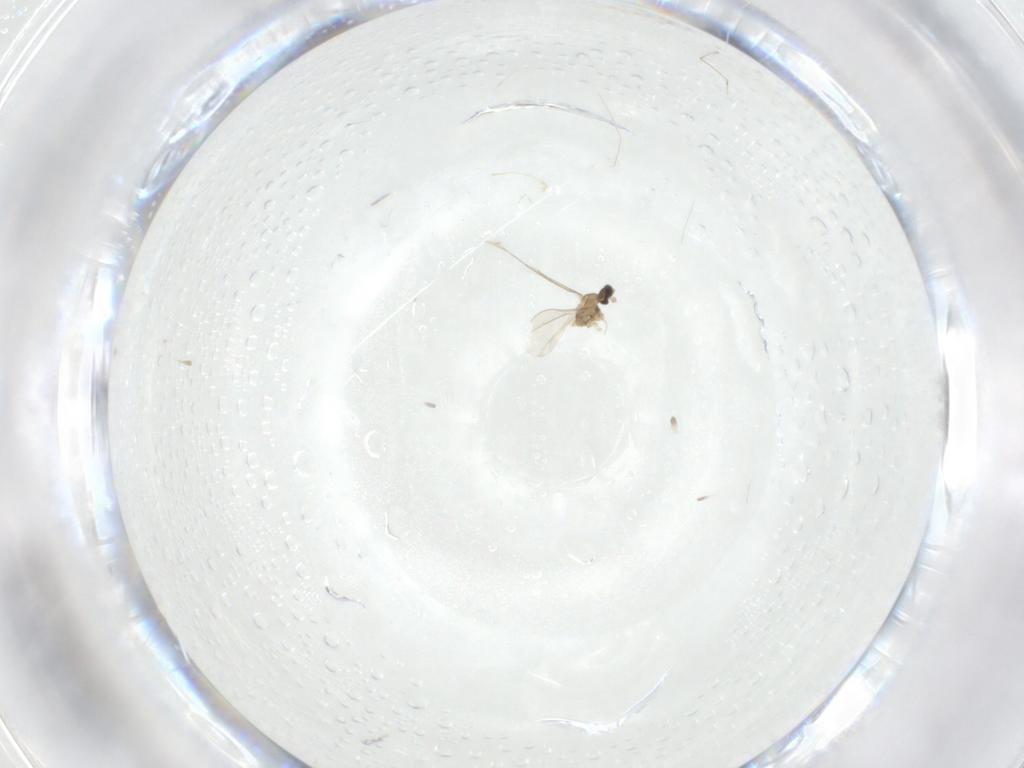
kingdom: Animalia
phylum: Arthropoda
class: Insecta
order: Diptera
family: Cecidomyiidae
